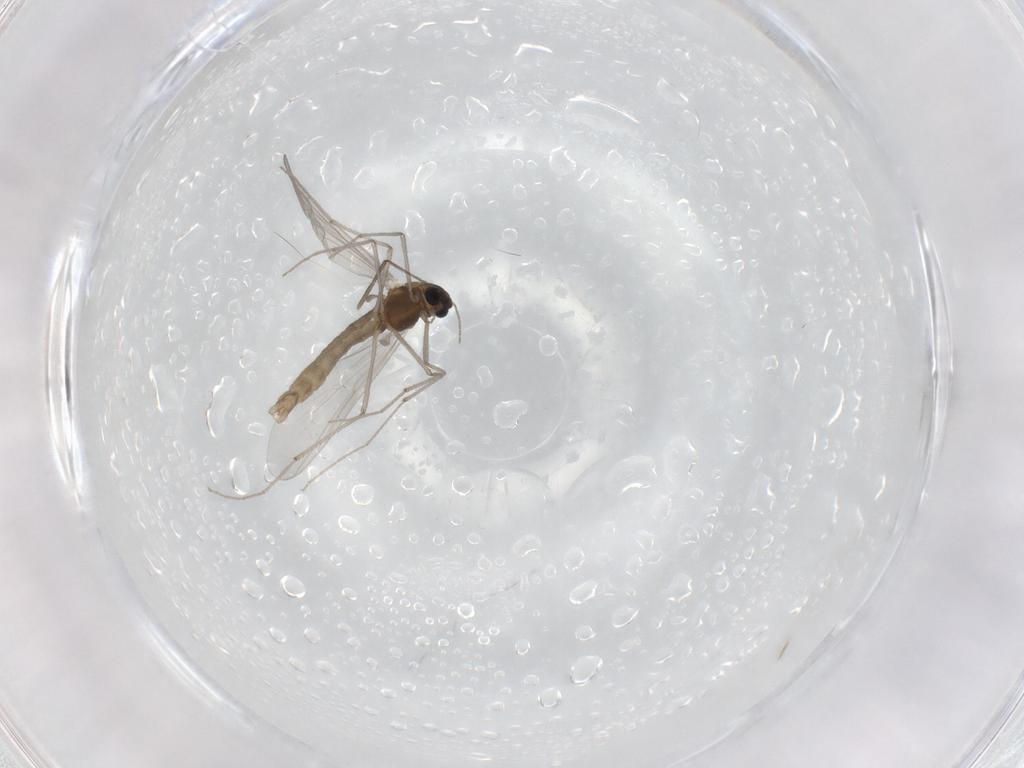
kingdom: Animalia
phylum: Arthropoda
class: Insecta
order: Diptera
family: Chironomidae
